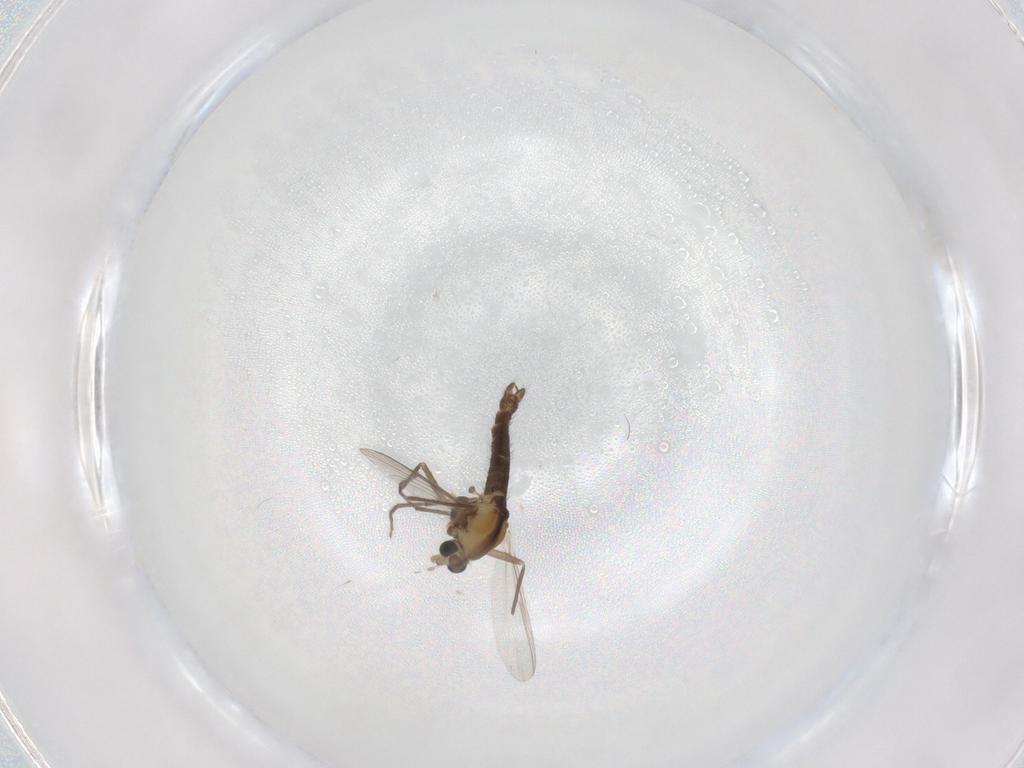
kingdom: Animalia
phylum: Arthropoda
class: Insecta
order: Diptera
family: Chironomidae
